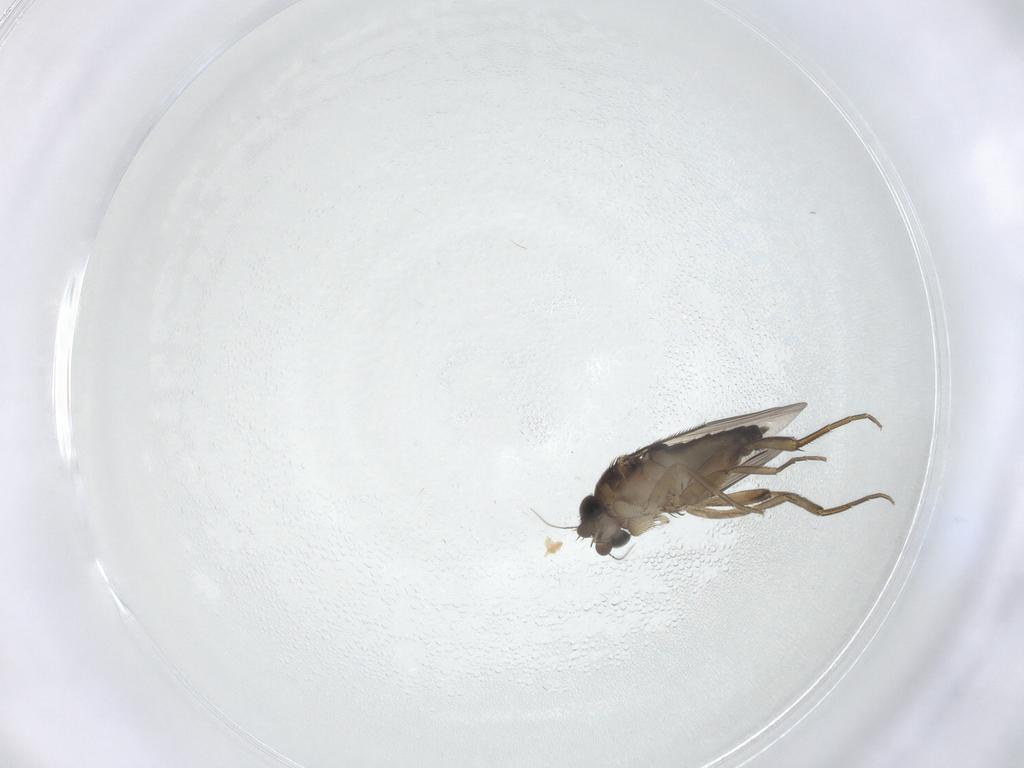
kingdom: Animalia
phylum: Arthropoda
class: Insecta
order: Diptera
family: Phoridae
